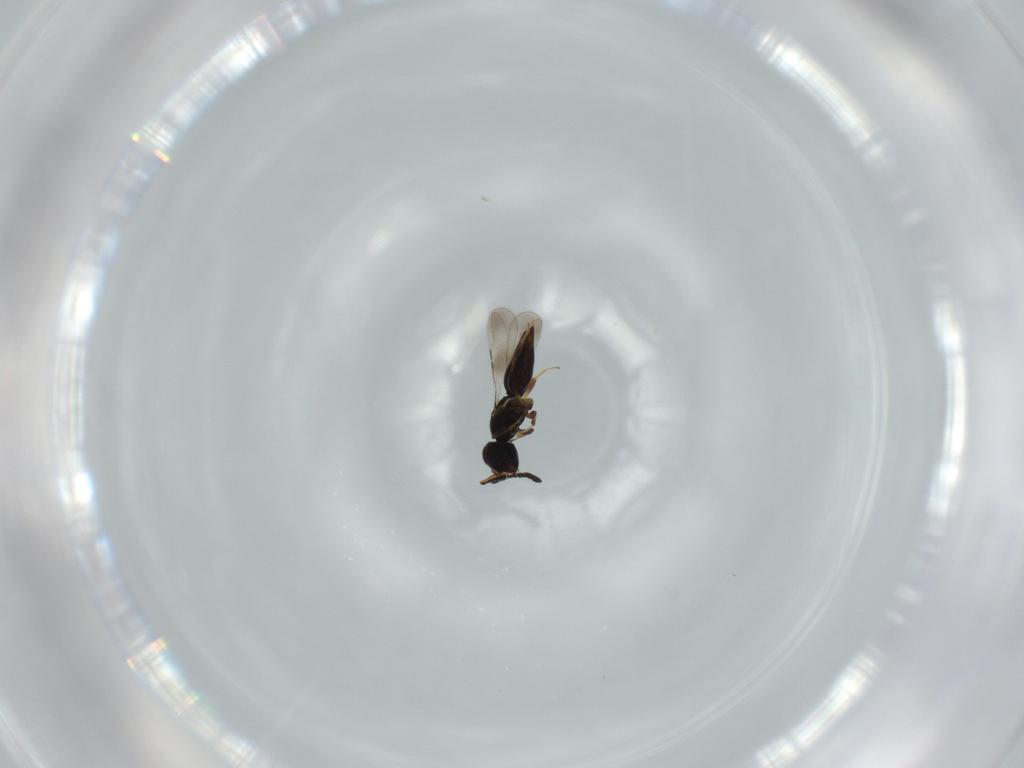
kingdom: Animalia
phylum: Arthropoda
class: Insecta
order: Hymenoptera
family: Ceraphronidae
